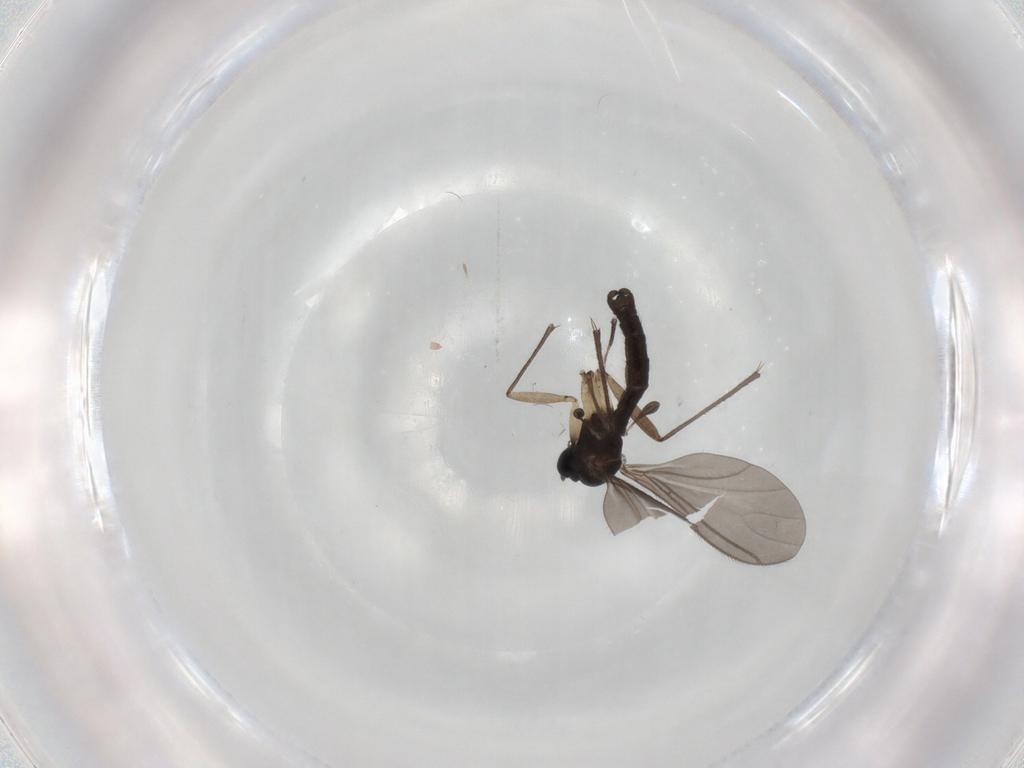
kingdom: Animalia
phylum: Arthropoda
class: Insecta
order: Diptera
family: Sciaridae
